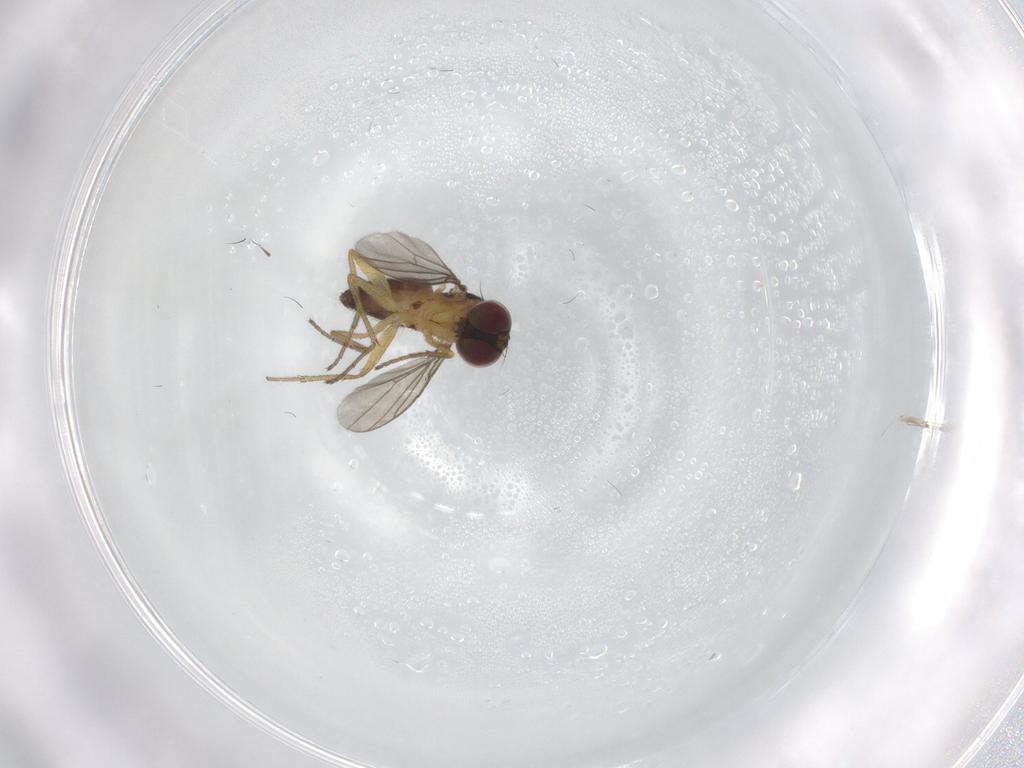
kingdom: Animalia
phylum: Arthropoda
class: Insecta
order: Diptera
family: Dolichopodidae
